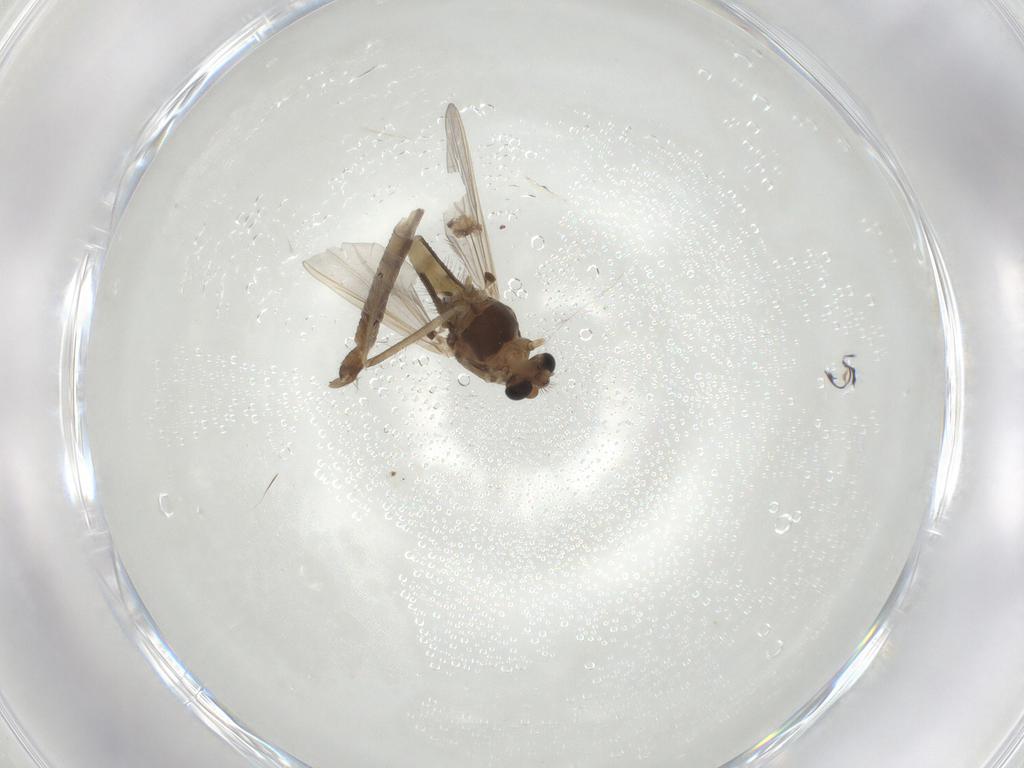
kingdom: Animalia
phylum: Arthropoda
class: Insecta
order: Diptera
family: Chironomidae
